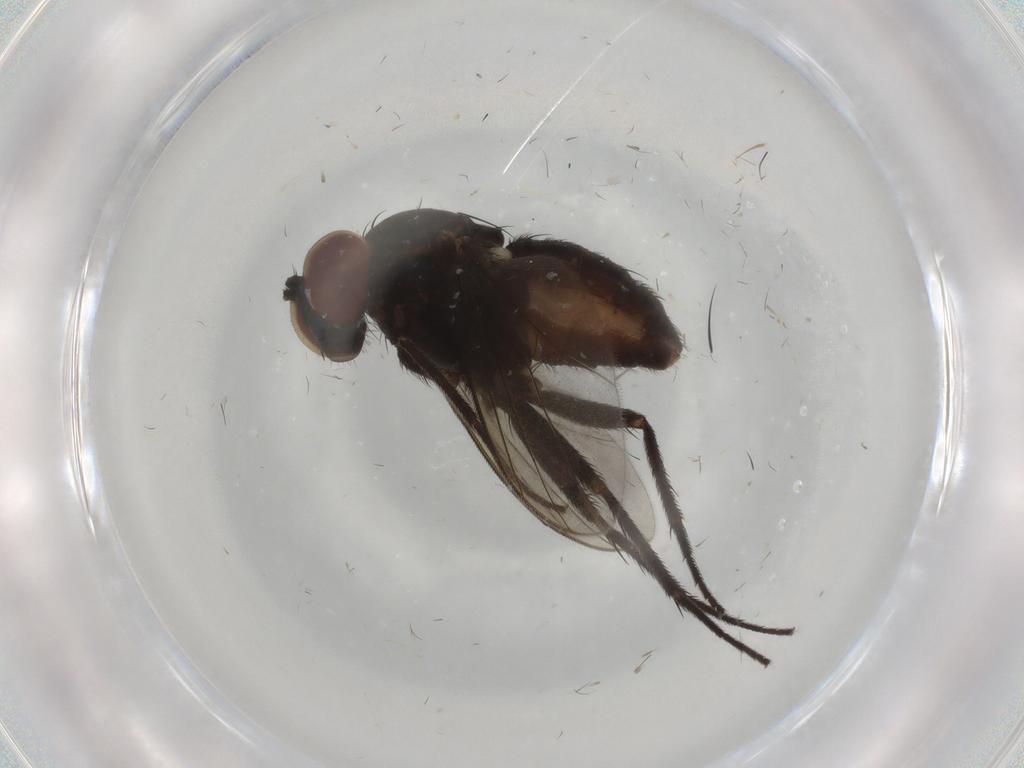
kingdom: Animalia
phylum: Arthropoda
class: Insecta
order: Diptera
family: Dolichopodidae
